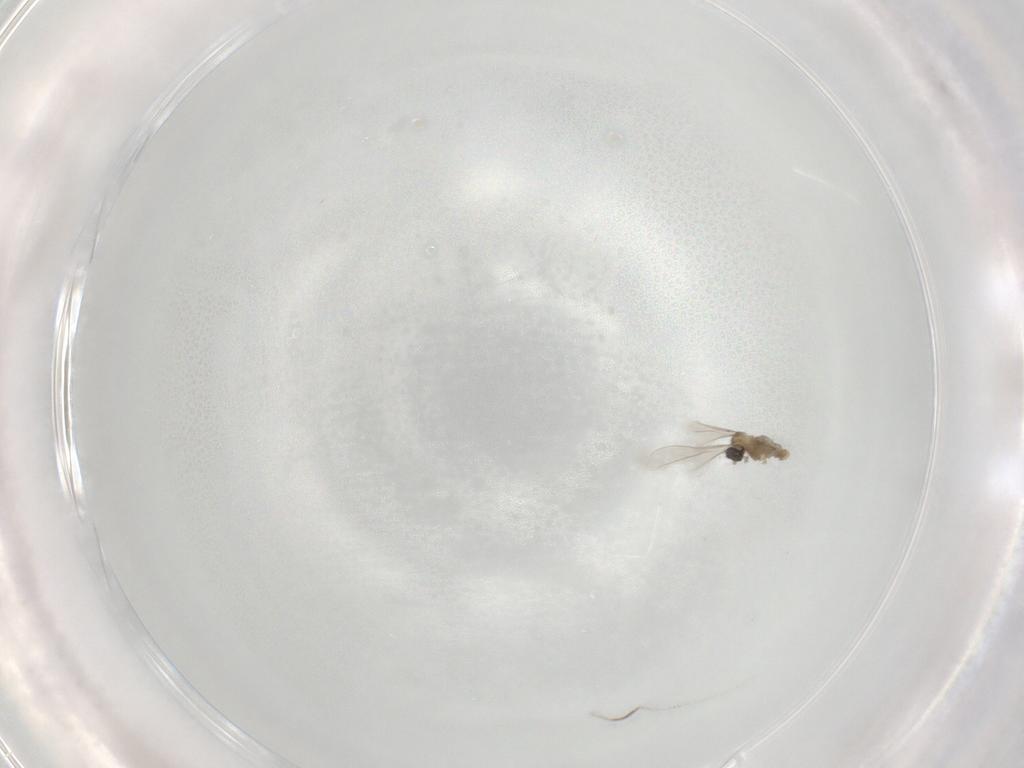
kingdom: Animalia
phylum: Arthropoda
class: Insecta
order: Diptera
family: Cecidomyiidae
